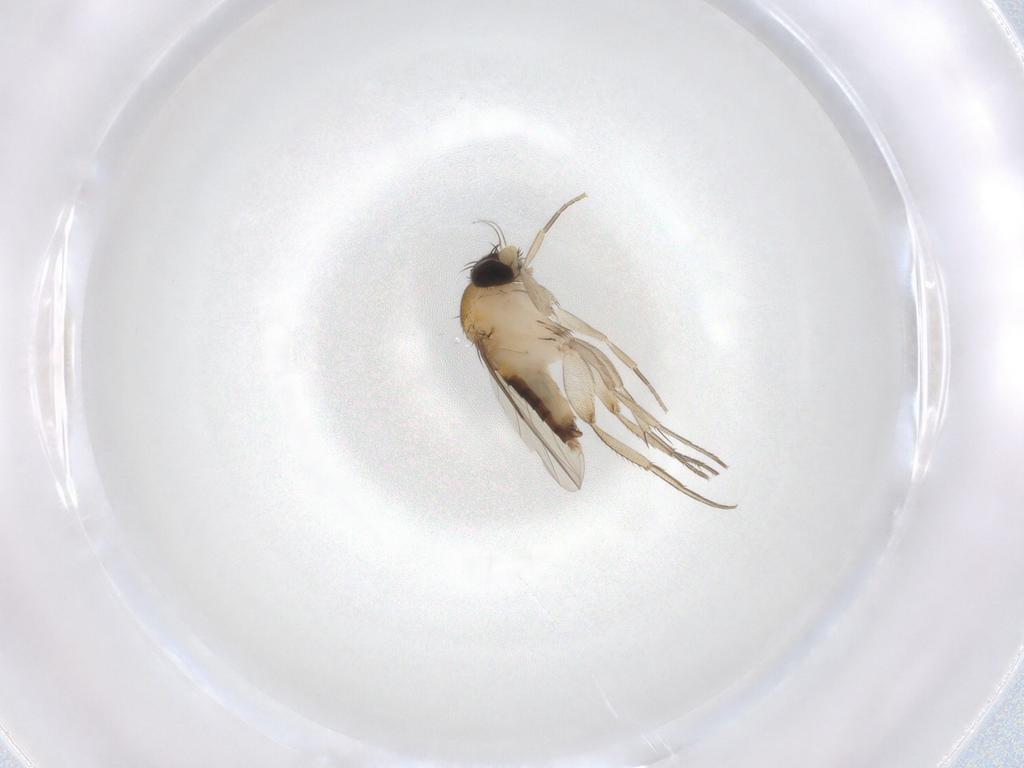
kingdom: Animalia
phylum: Arthropoda
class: Insecta
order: Diptera
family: Phoridae
